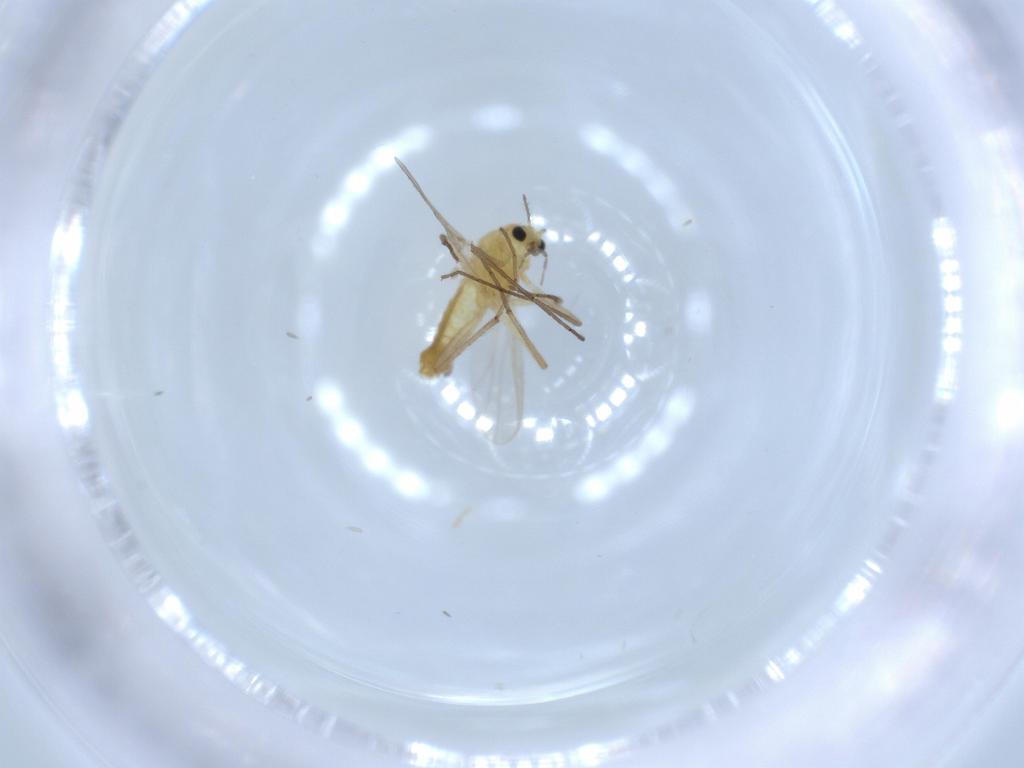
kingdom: Animalia
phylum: Arthropoda
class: Insecta
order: Diptera
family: Chironomidae
